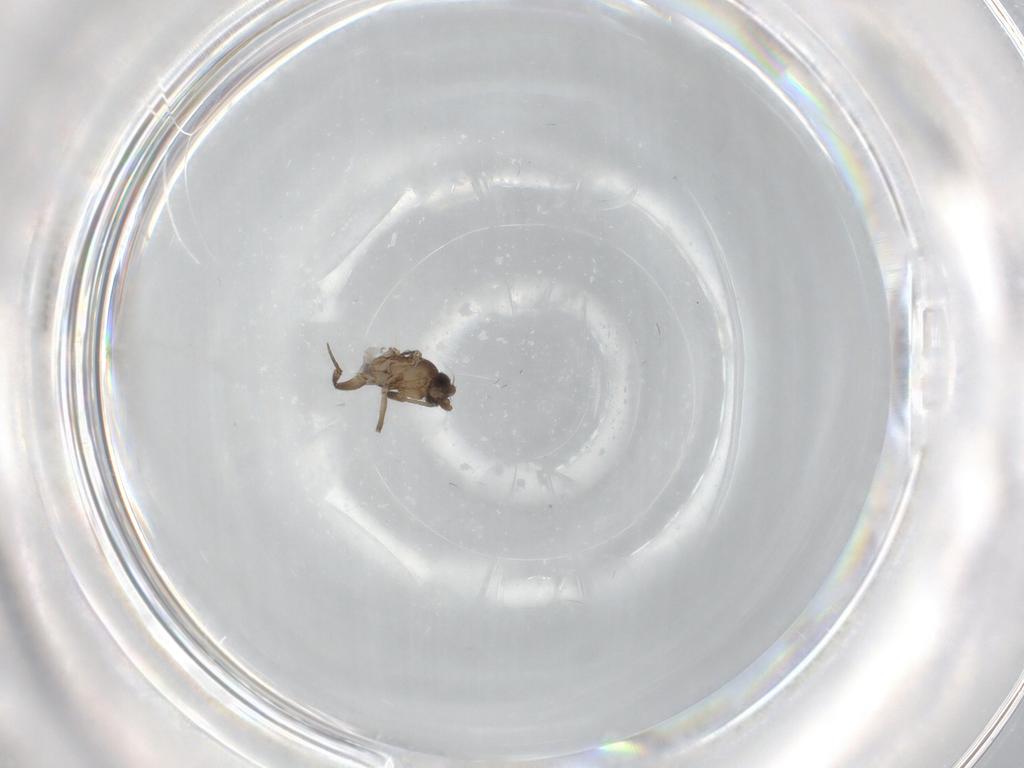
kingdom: Animalia
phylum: Arthropoda
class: Insecta
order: Diptera
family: Phoridae
